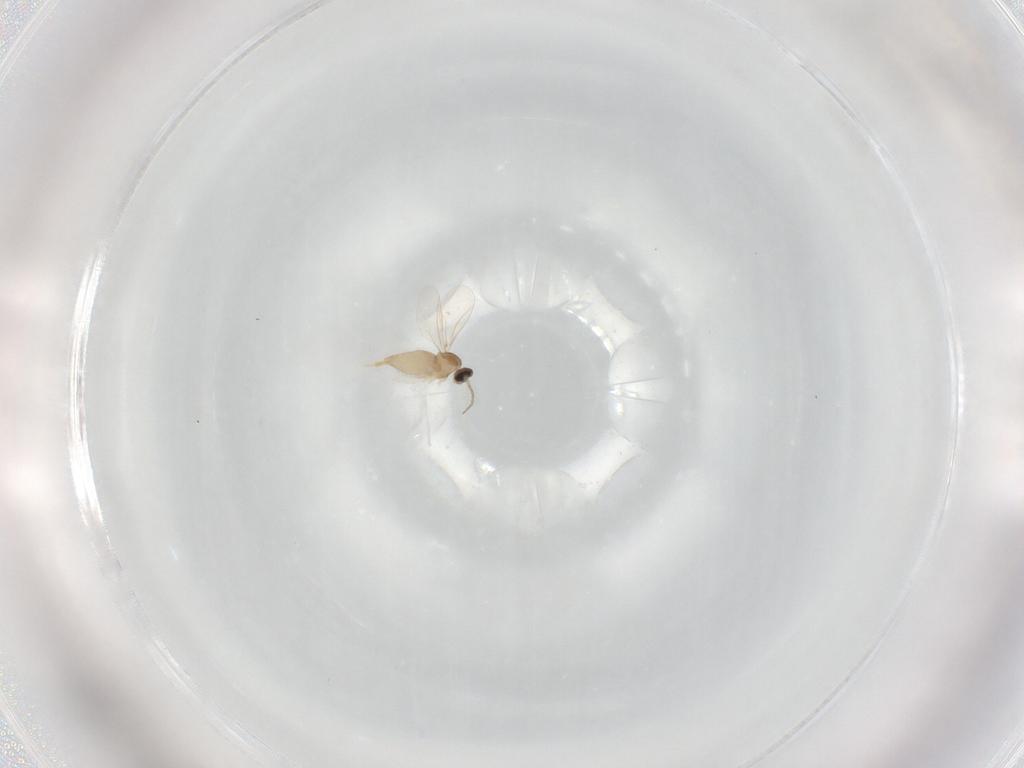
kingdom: Animalia
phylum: Arthropoda
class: Insecta
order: Diptera
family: Cecidomyiidae
